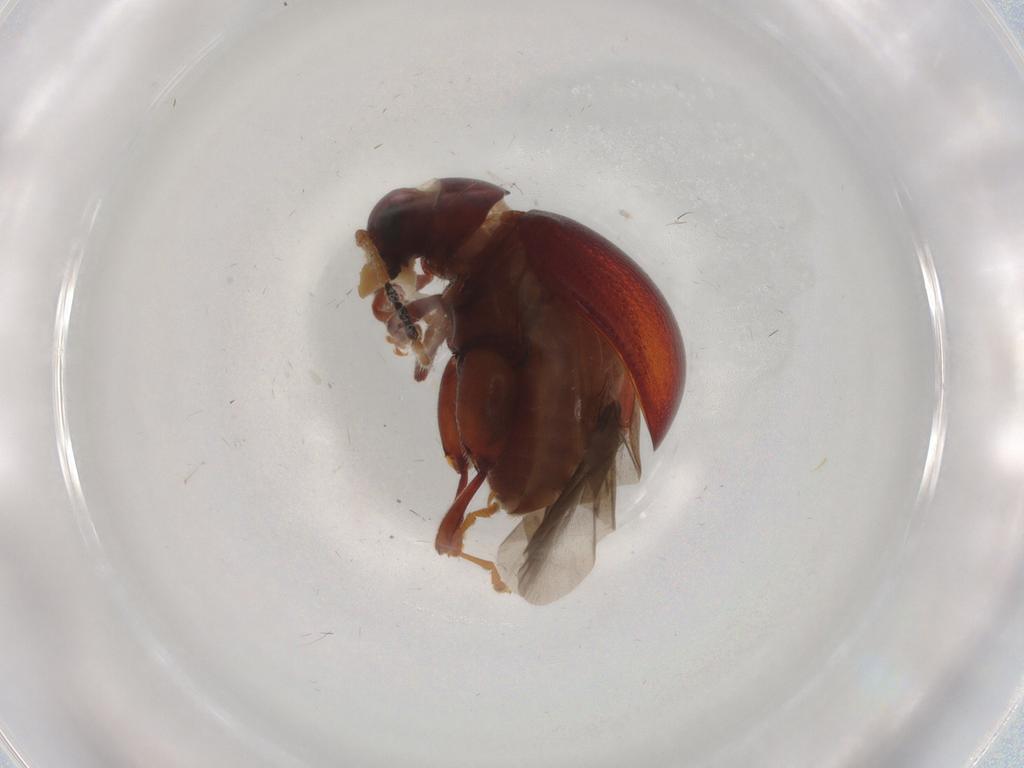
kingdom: Animalia
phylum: Arthropoda
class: Insecta
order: Coleoptera
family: Oedemeridae
